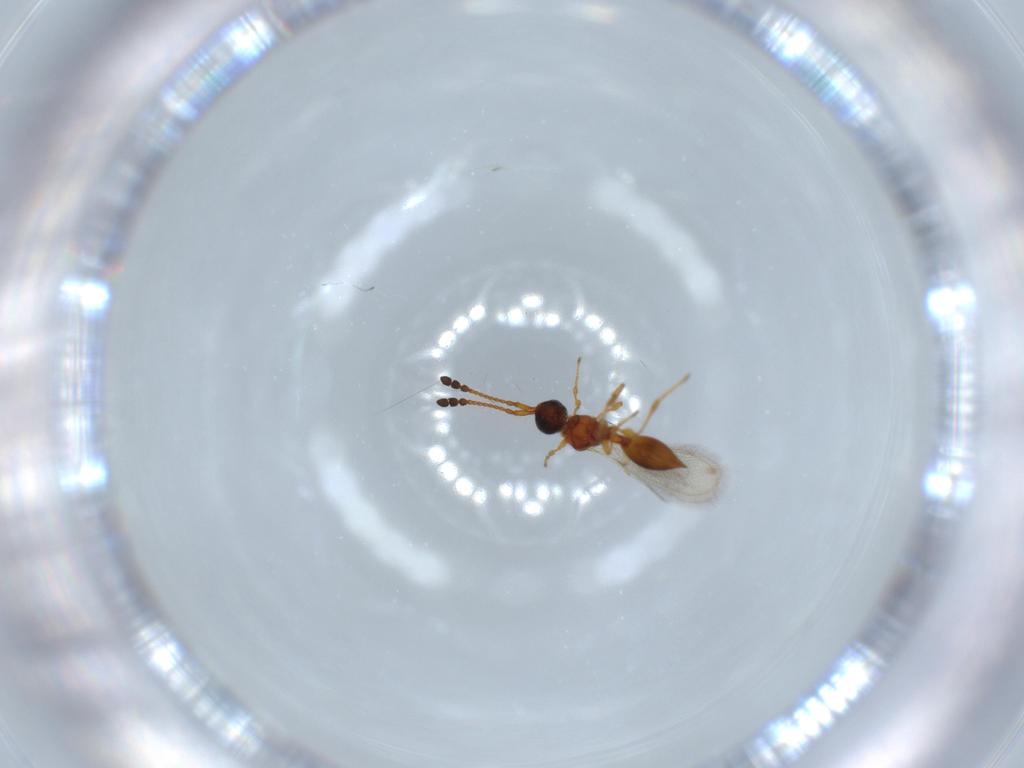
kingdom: Animalia
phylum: Arthropoda
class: Insecta
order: Hymenoptera
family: Diapriidae
